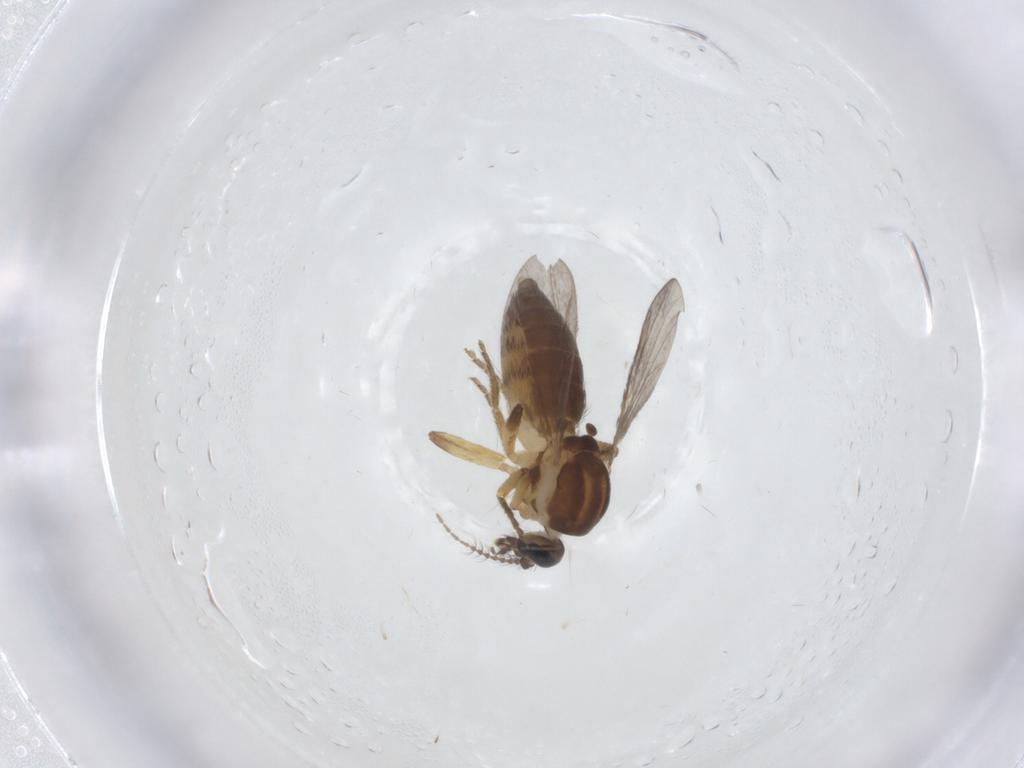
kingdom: Animalia
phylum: Arthropoda
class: Insecta
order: Diptera
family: Ceratopogonidae
